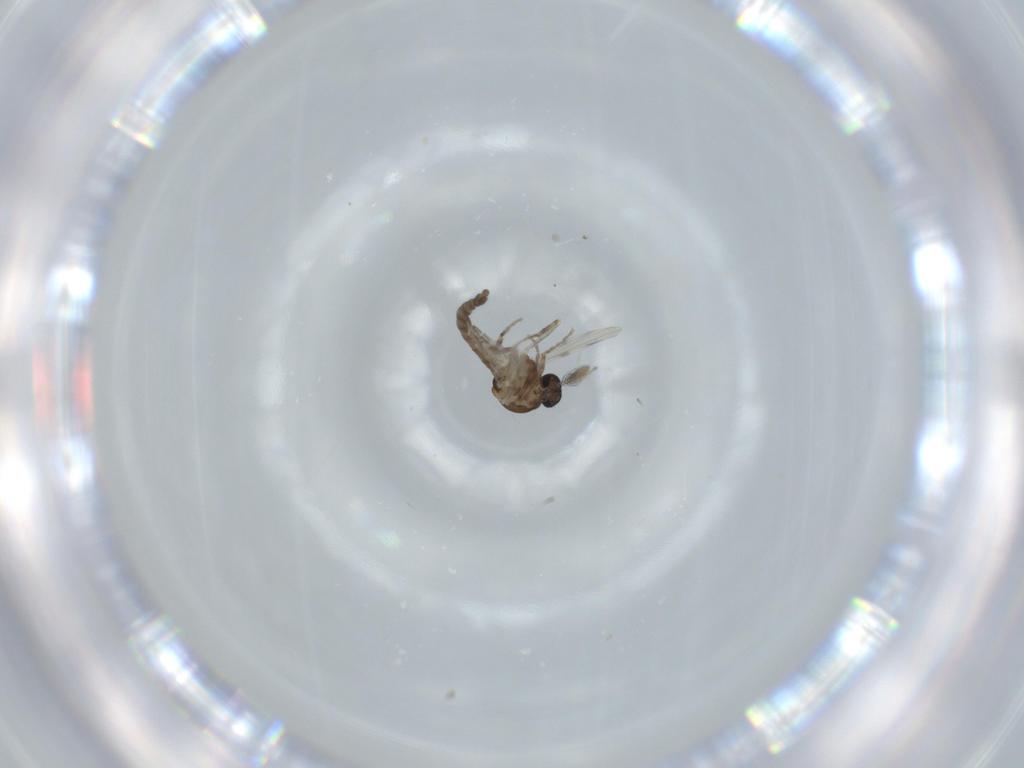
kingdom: Animalia
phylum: Arthropoda
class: Insecta
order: Diptera
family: Ceratopogonidae
